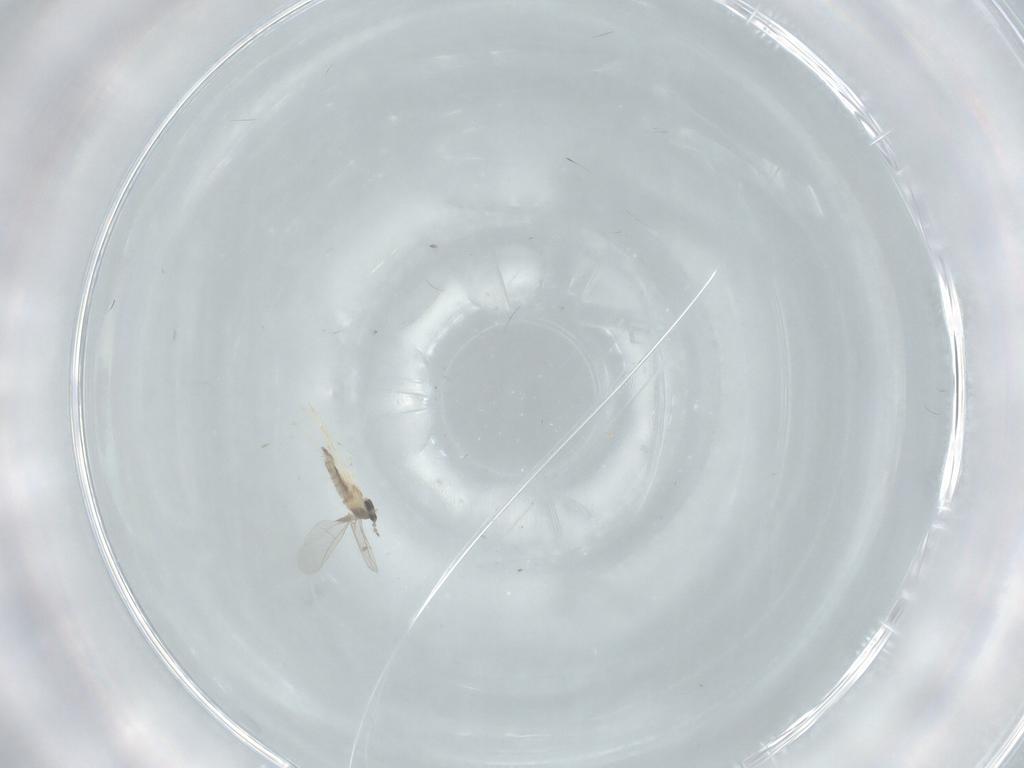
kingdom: Animalia
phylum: Arthropoda
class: Insecta
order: Diptera
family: Cecidomyiidae
